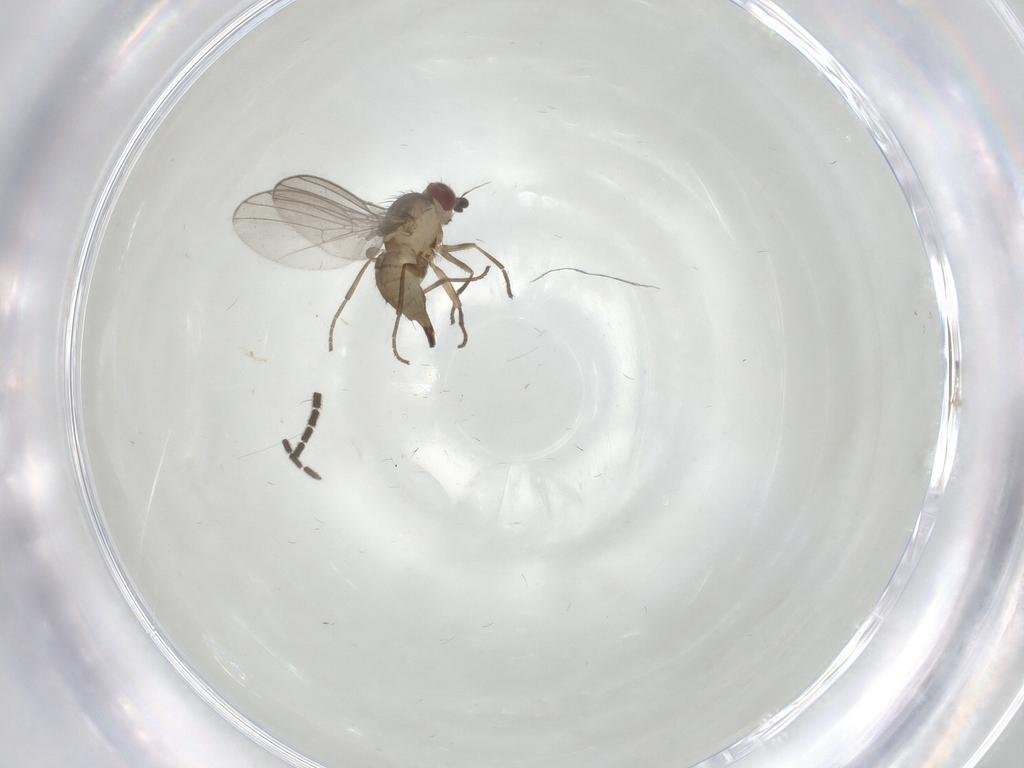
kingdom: Animalia
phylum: Arthropoda
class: Insecta
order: Diptera
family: Sciaridae
